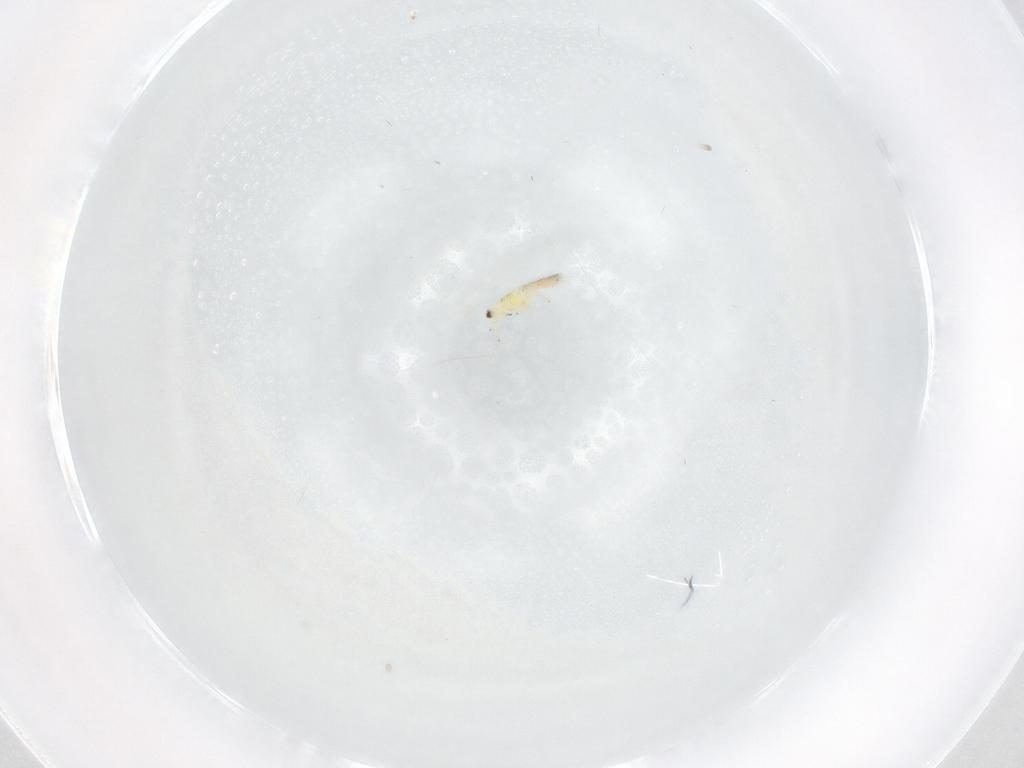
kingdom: Animalia
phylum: Arthropoda
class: Insecta
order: Thysanoptera
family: Thripidae
